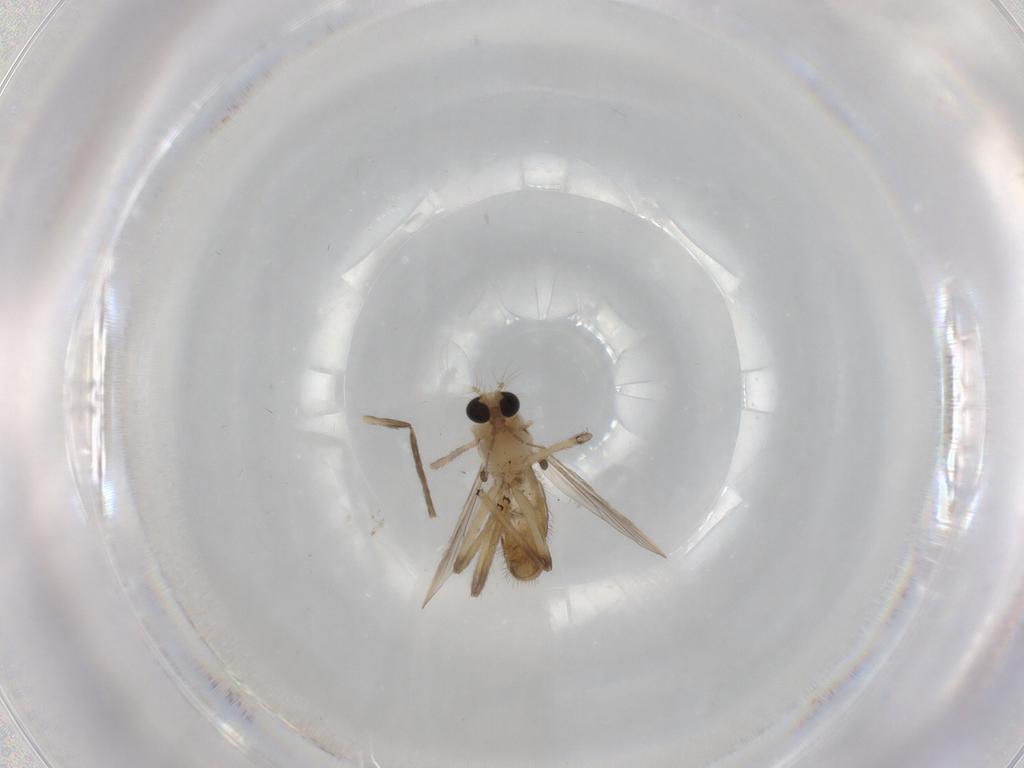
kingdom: Animalia
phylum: Arthropoda
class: Insecta
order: Diptera
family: Chironomidae
